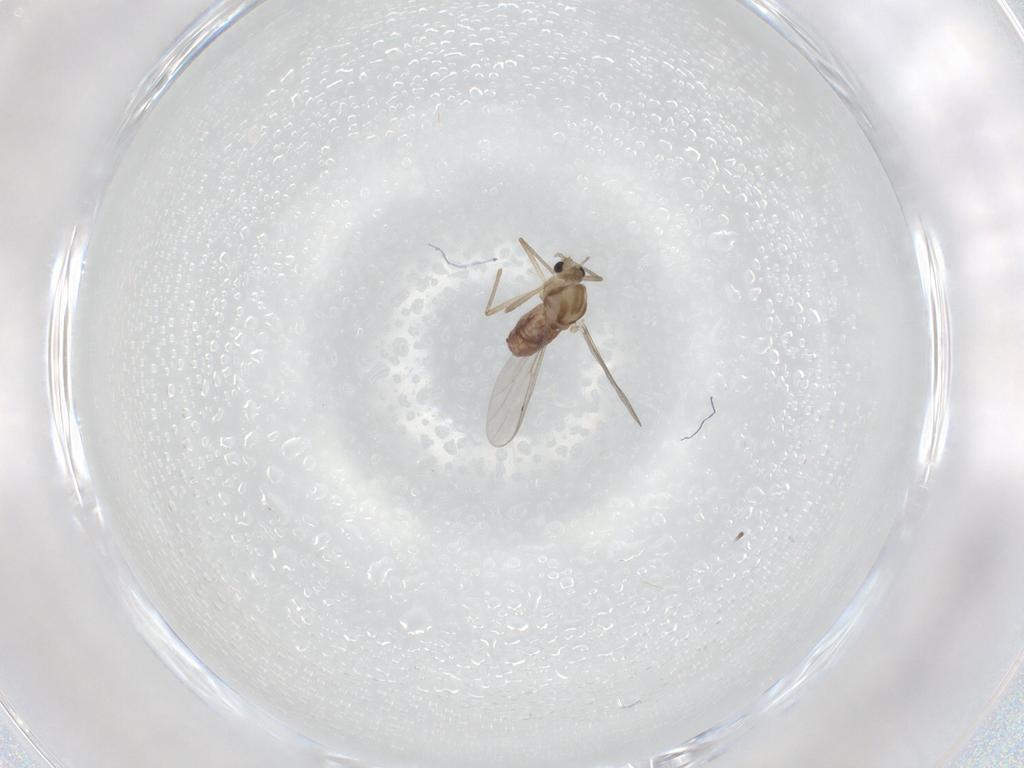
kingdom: Animalia
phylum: Arthropoda
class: Insecta
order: Diptera
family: Chironomidae
